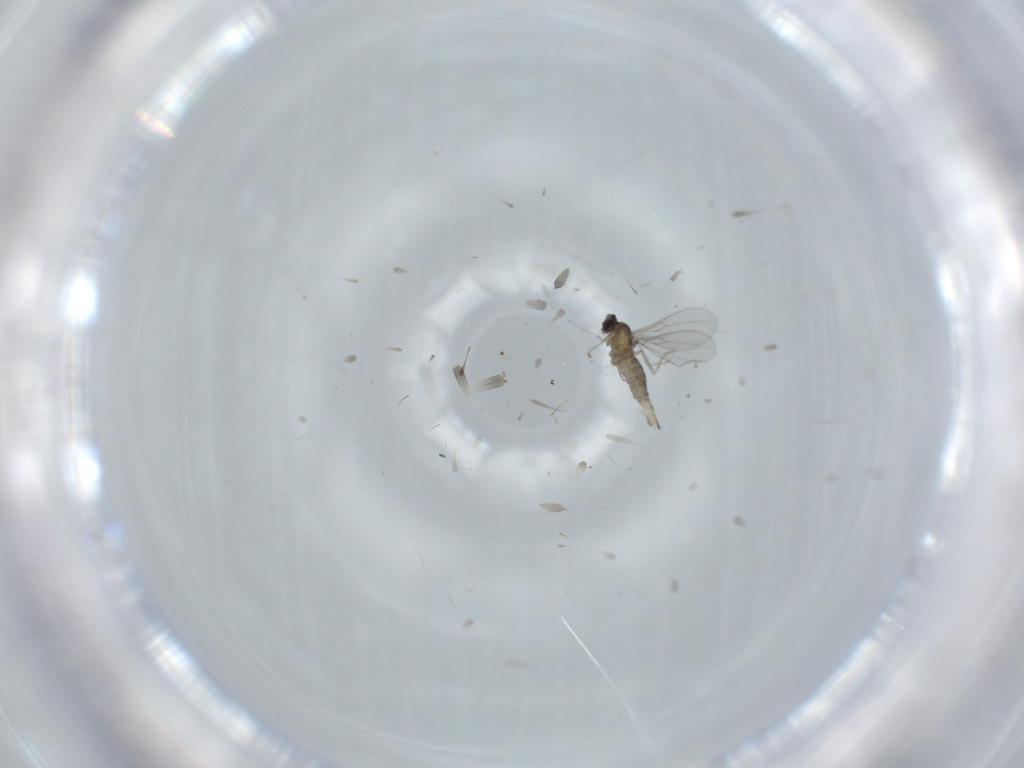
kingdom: Animalia
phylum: Arthropoda
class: Insecta
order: Diptera
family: Cecidomyiidae
